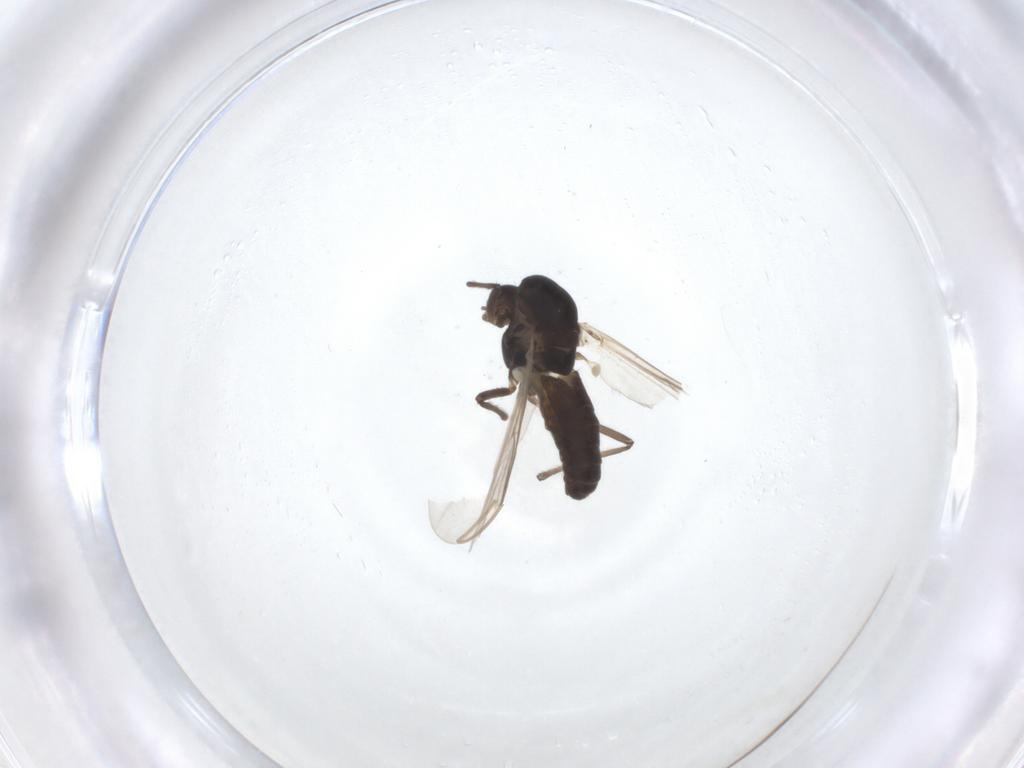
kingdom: Animalia
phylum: Arthropoda
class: Insecta
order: Diptera
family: Chironomidae
